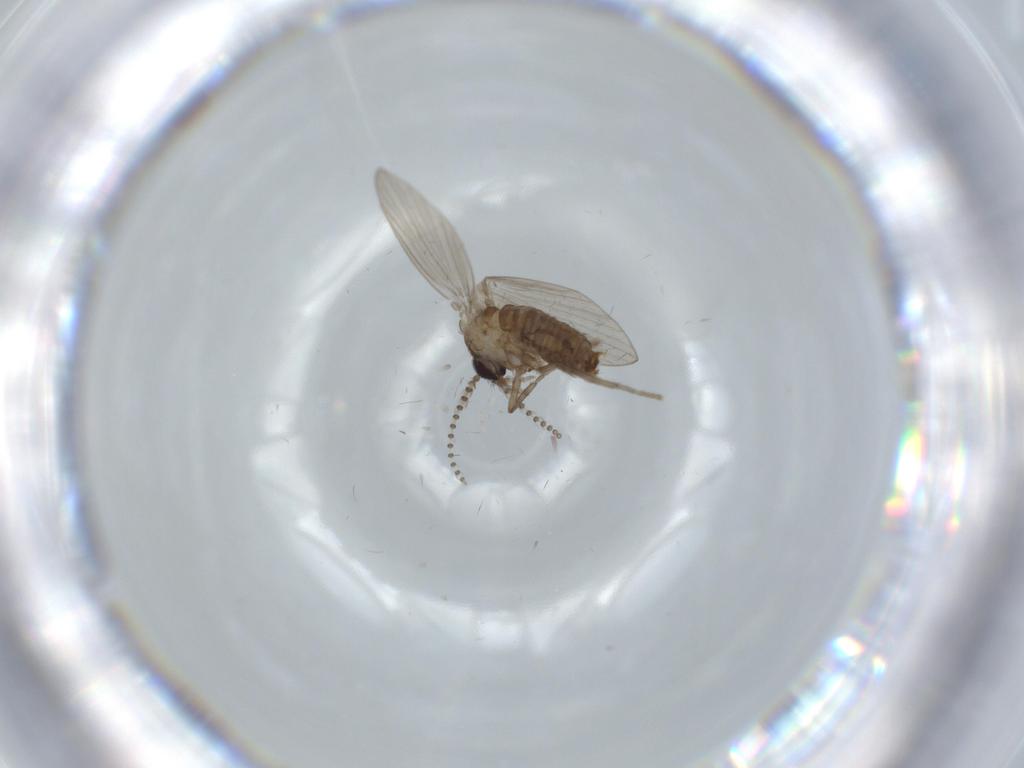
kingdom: Animalia
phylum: Arthropoda
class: Insecta
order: Diptera
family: Psychodidae
